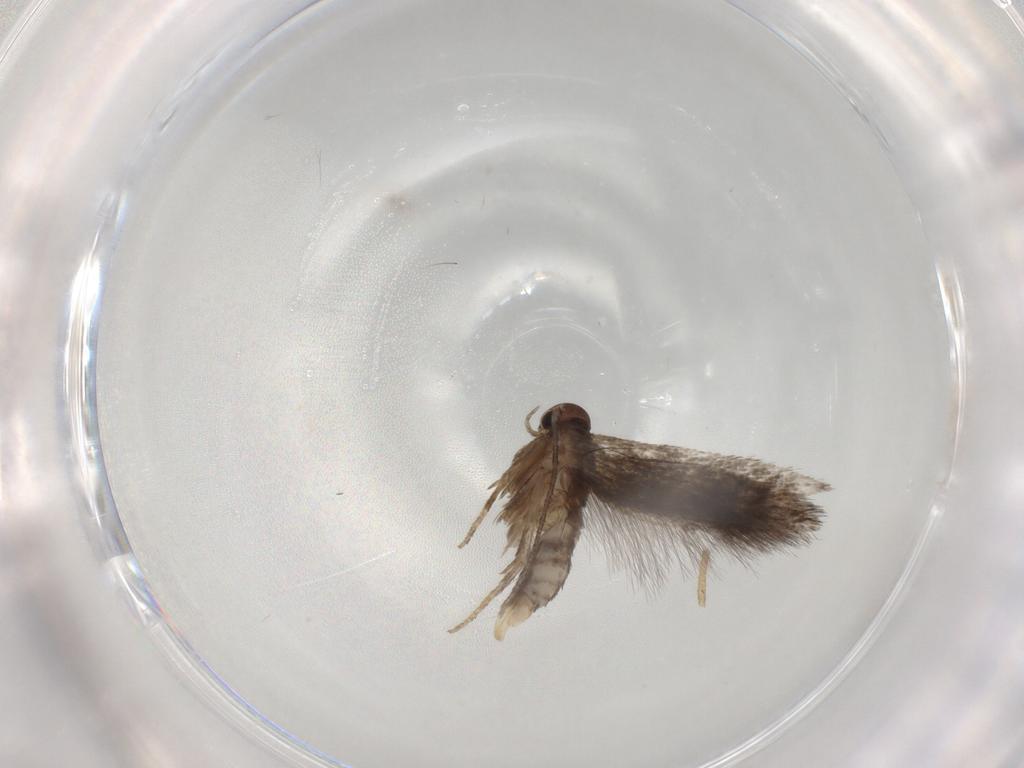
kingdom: Animalia
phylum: Arthropoda
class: Insecta
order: Lepidoptera
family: Elachistidae
